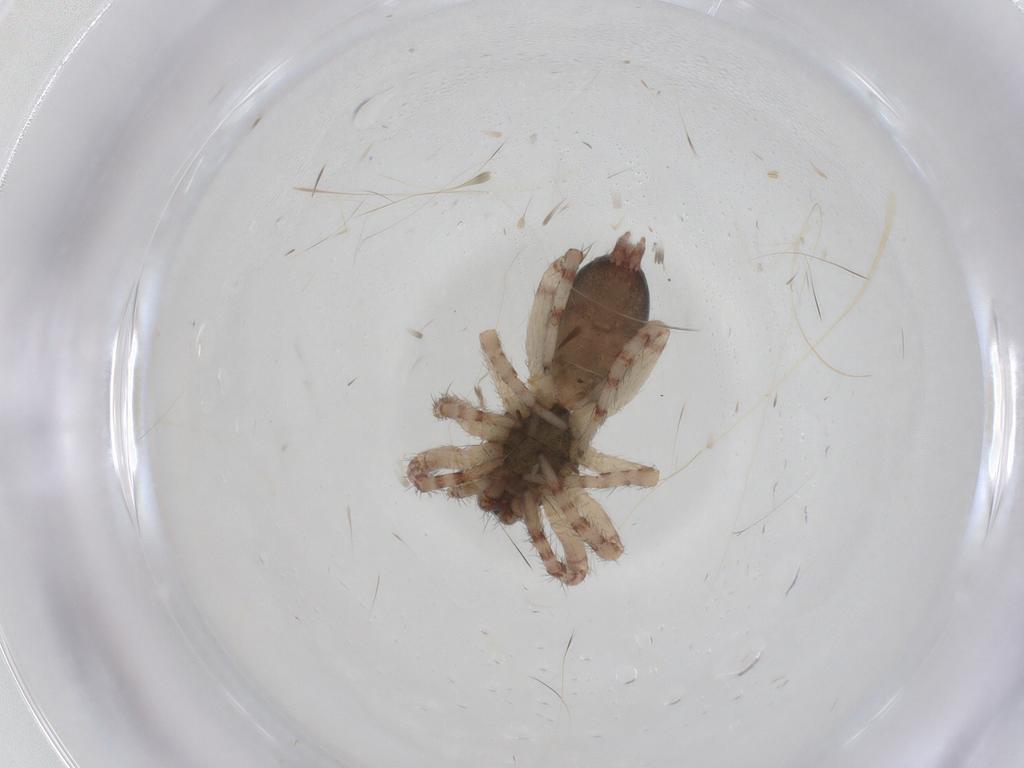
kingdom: Animalia
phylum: Arthropoda
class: Arachnida
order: Araneae
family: Anyphaenidae
